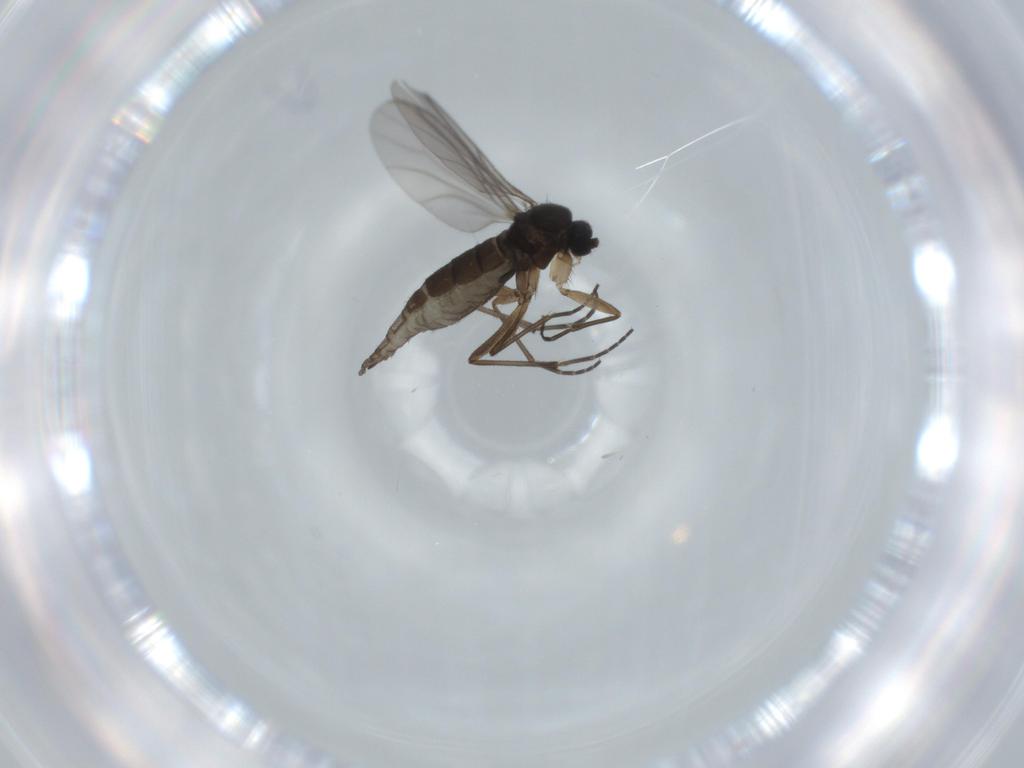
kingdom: Animalia
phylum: Arthropoda
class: Insecta
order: Diptera
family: Sciaridae
